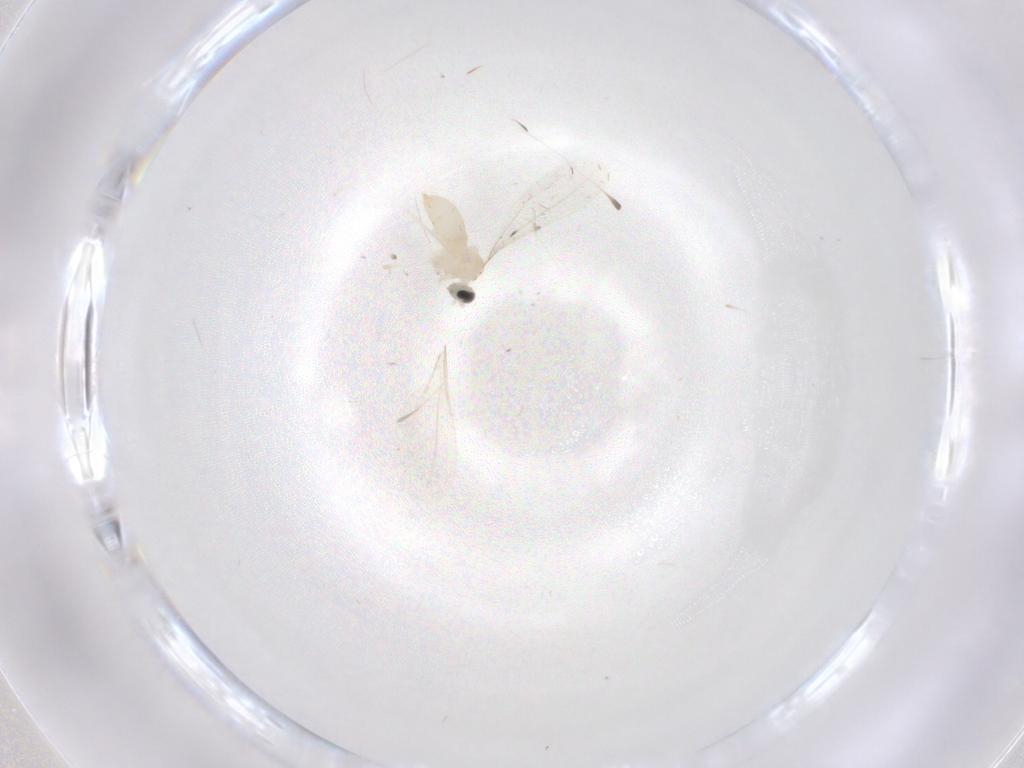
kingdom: Animalia
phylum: Arthropoda
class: Insecta
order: Diptera
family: Cecidomyiidae
